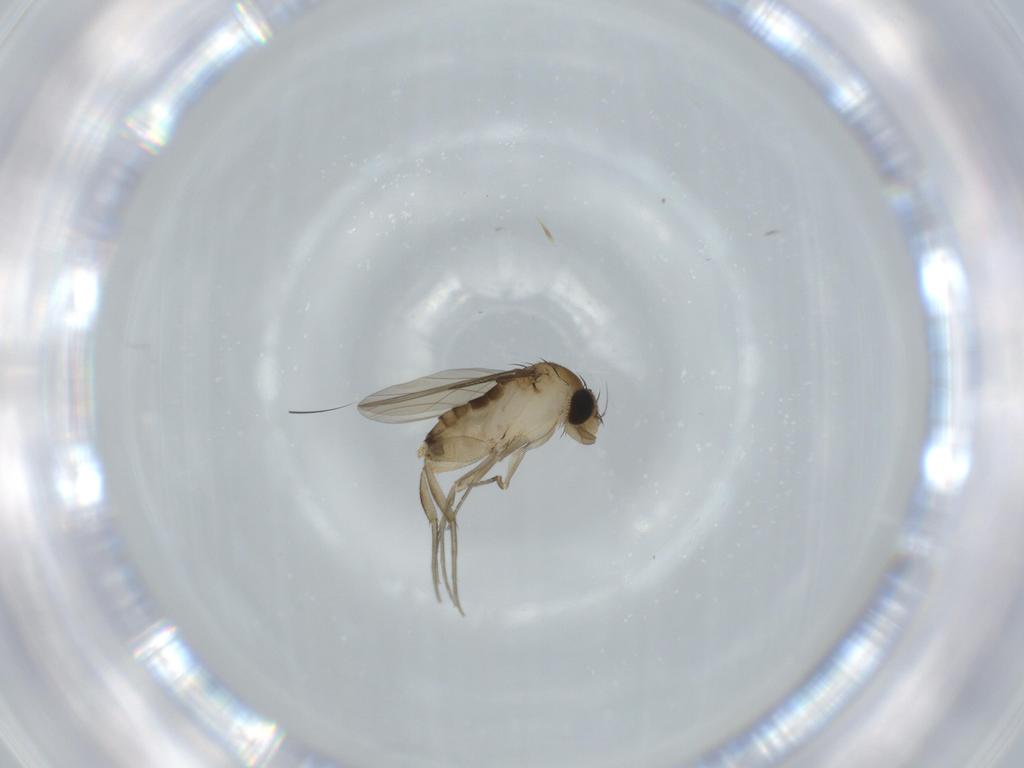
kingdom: Animalia
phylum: Arthropoda
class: Insecta
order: Diptera
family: Phoridae
